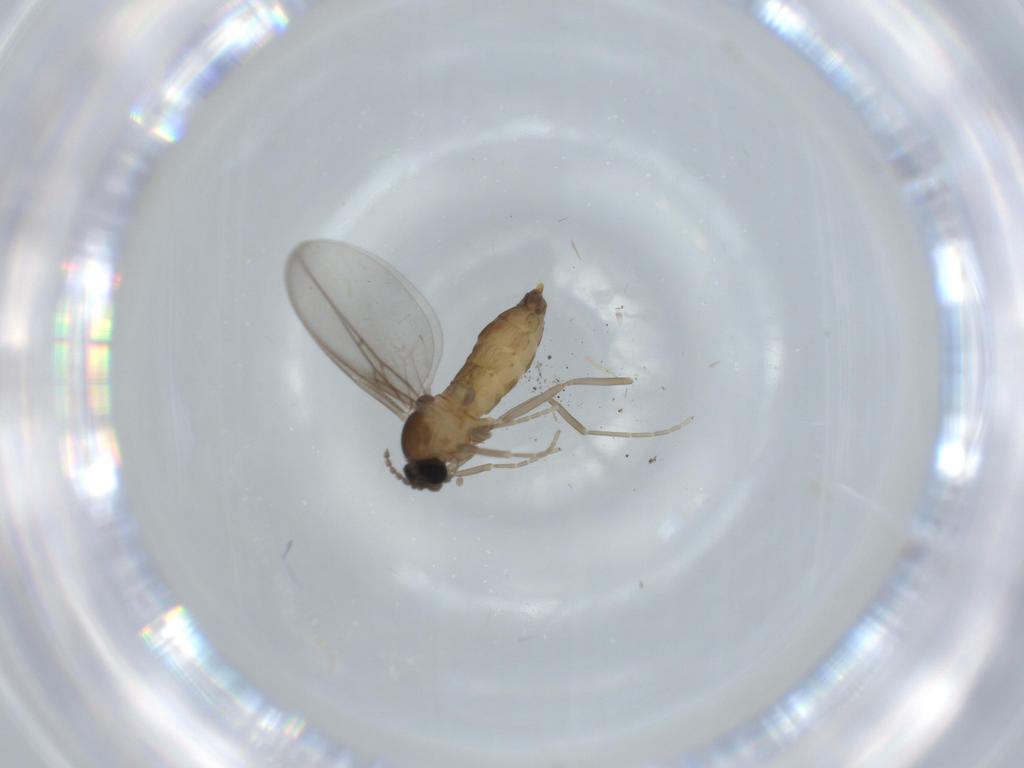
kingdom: Animalia
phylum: Arthropoda
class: Insecta
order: Diptera
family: Cecidomyiidae
